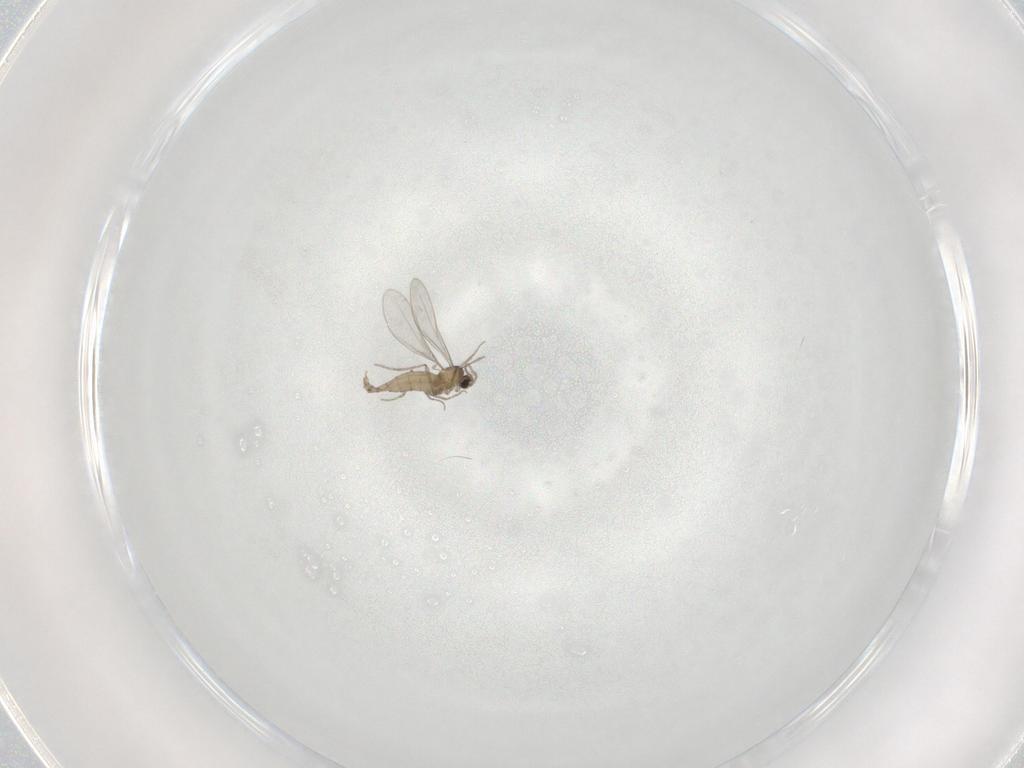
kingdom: Animalia
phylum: Arthropoda
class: Insecta
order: Diptera
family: Cecidomyiidae
